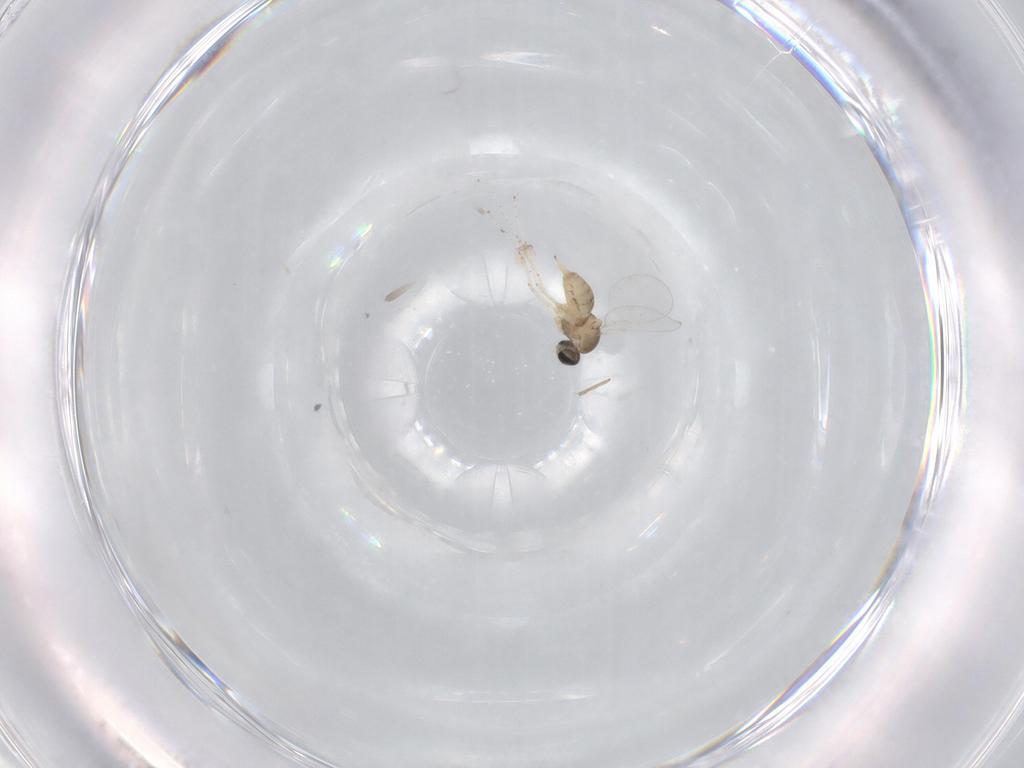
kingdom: Animalia
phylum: Arthropoda
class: Insecta
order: Diptera
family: Cecidomyiidae
